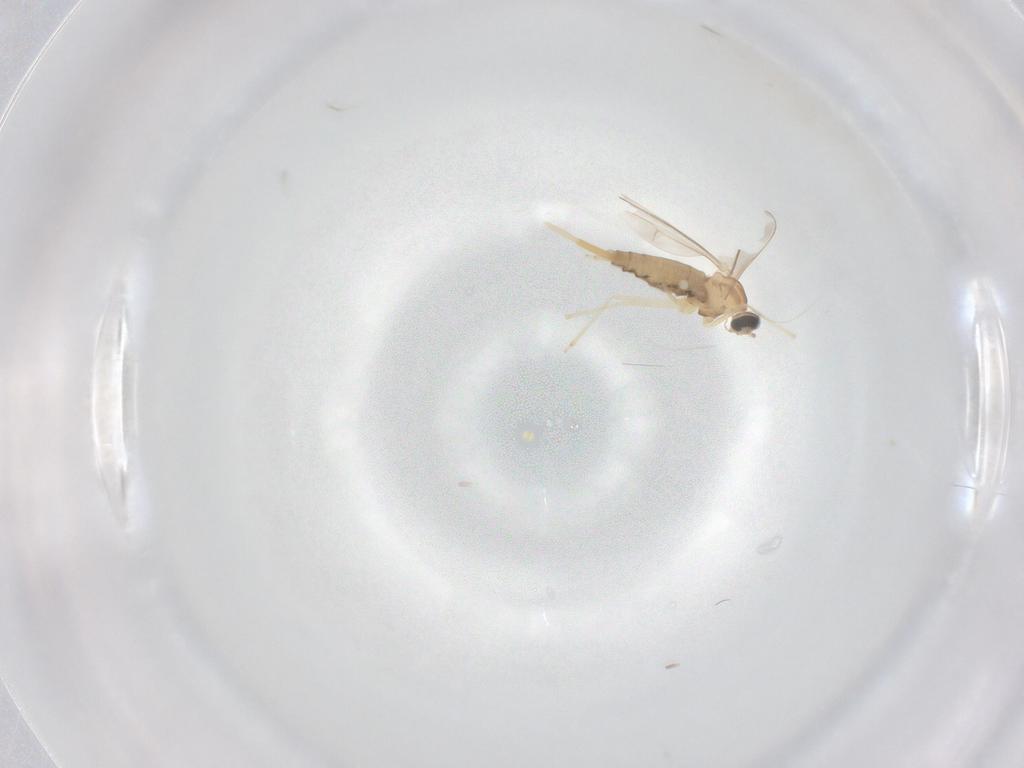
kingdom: Animalia
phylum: Arthropoda
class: Insecta
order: Diptera
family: Cecidomyiidae
